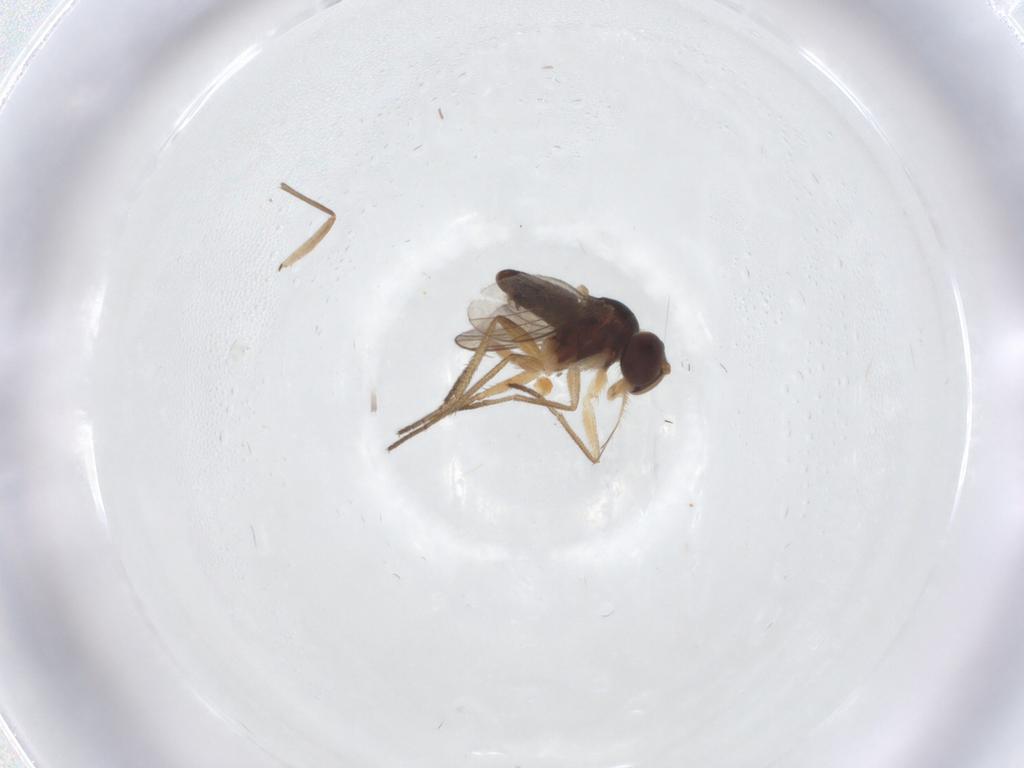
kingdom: Animalia
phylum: Arthropoda
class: Insecta
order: Diptera
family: Dolichopodidae
